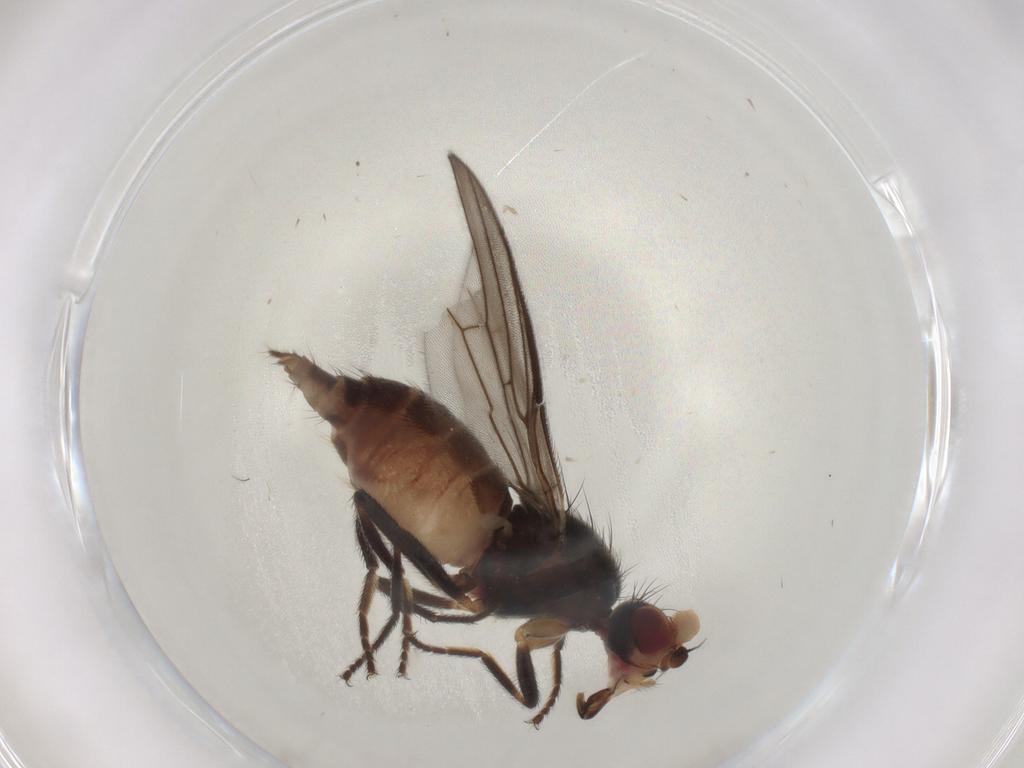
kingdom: Animalia
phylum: Arthropoda
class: Insecta
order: Diptera
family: Chloropidae
